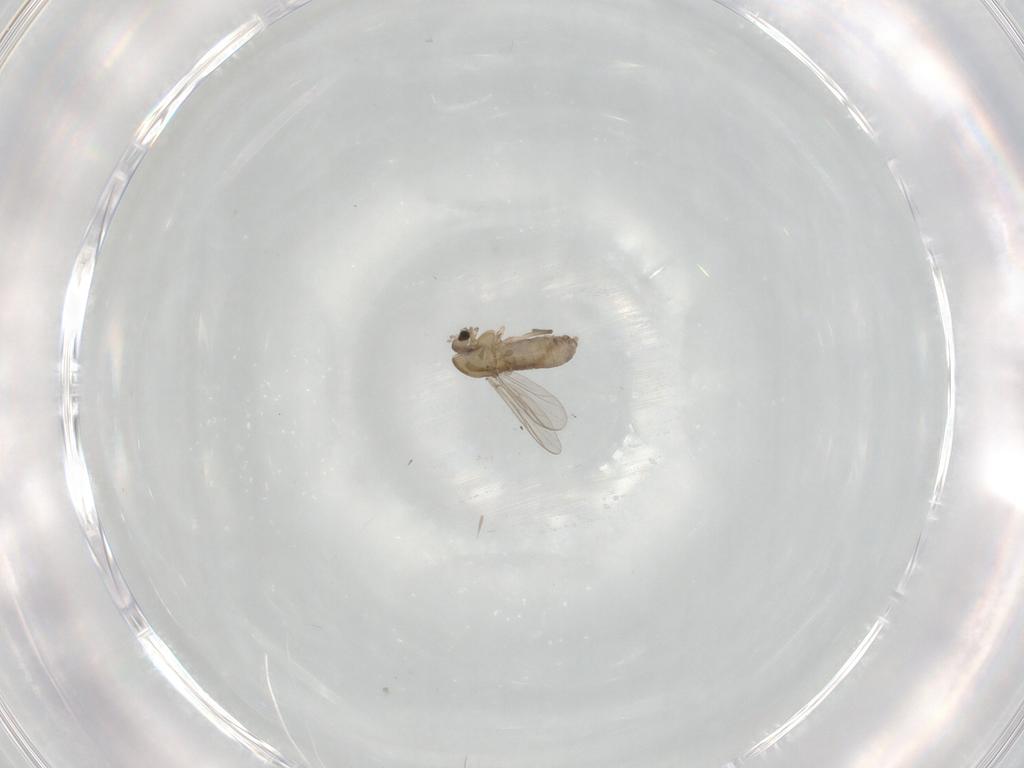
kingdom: Animalia
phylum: Arthropoda
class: Insecta
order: Diptera
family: Chironomidae
